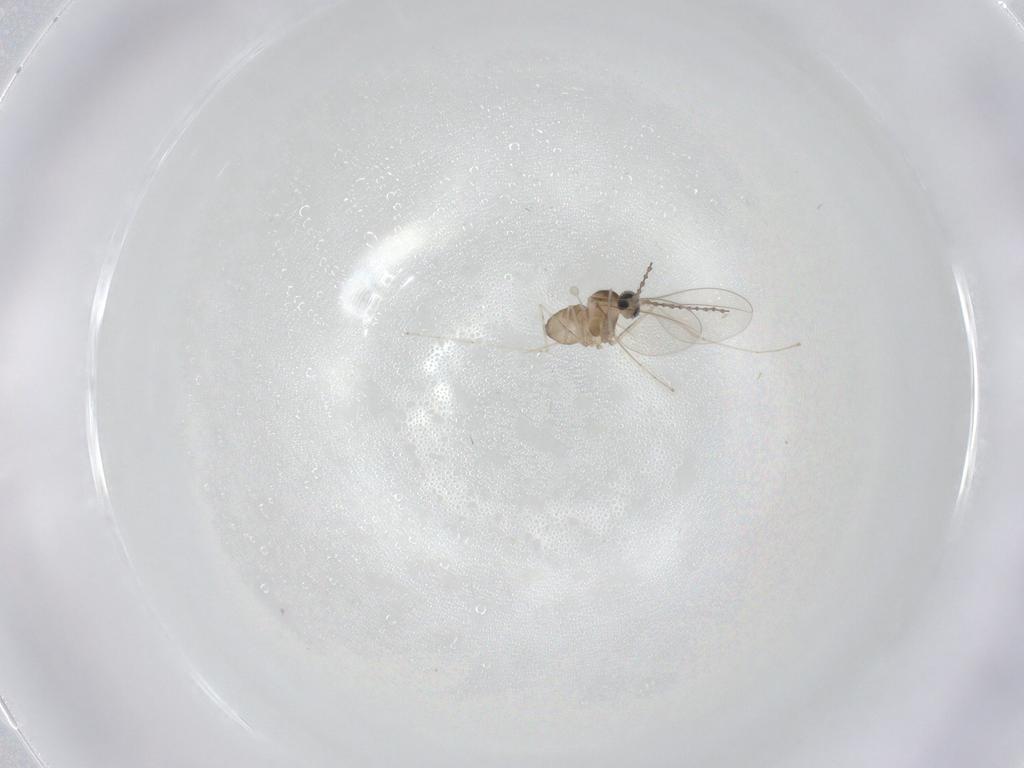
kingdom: Animalia
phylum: Arthropoda
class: Insecta
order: Diptera
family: Cecidomyiidae
